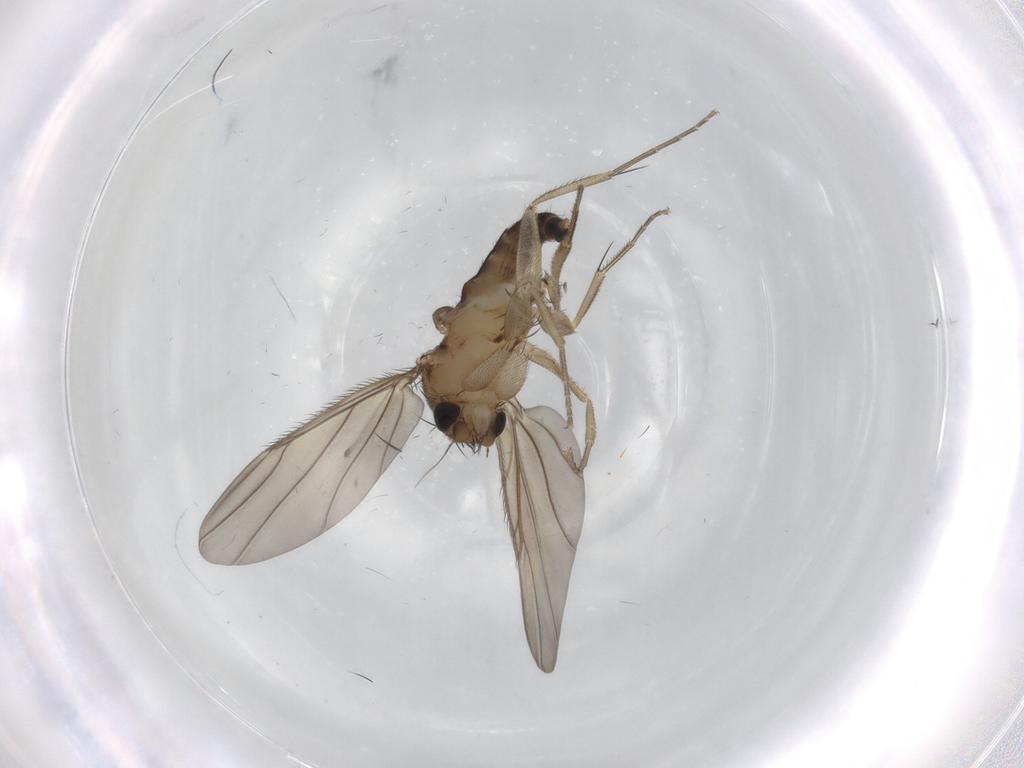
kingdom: Animalia
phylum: Arthropoda
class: Insecta
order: Diptera
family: Phoridae
